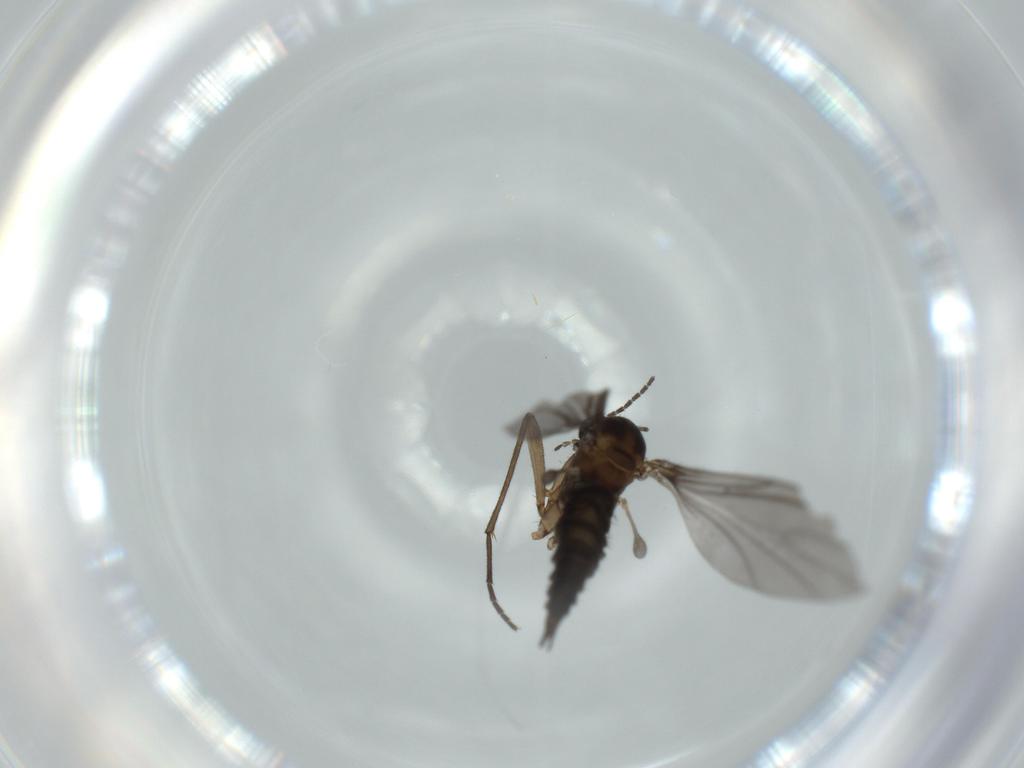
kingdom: Animalia
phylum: Arthropoda
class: Insecta
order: Diptera
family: Sciaridae
